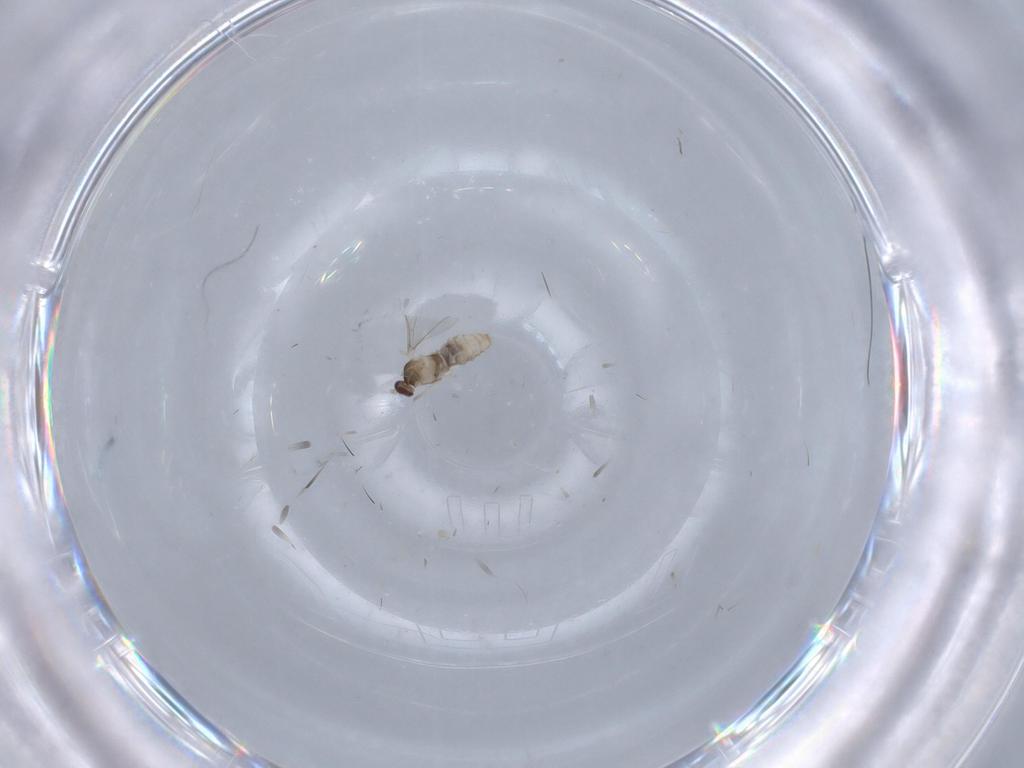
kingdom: Animalia
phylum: Arthropoda
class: Insecta
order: Diptera
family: Cecidomyiidae
